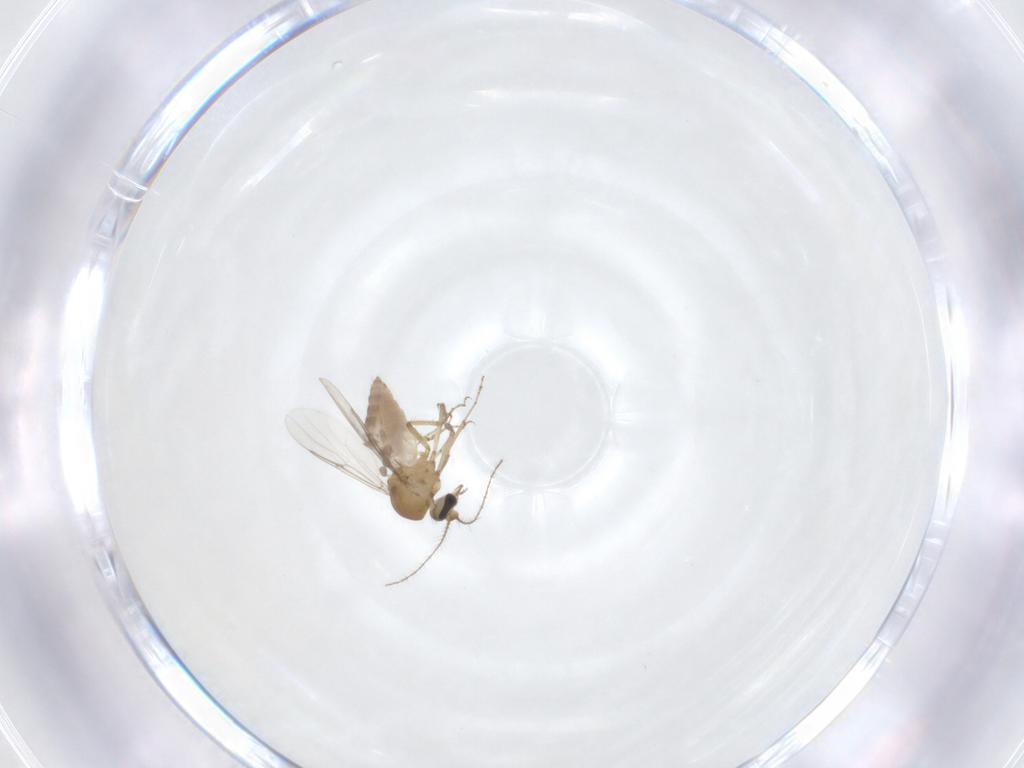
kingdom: Animalia
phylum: Arthropoda
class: Insecta
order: Diptera
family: Ceratopogonidae
